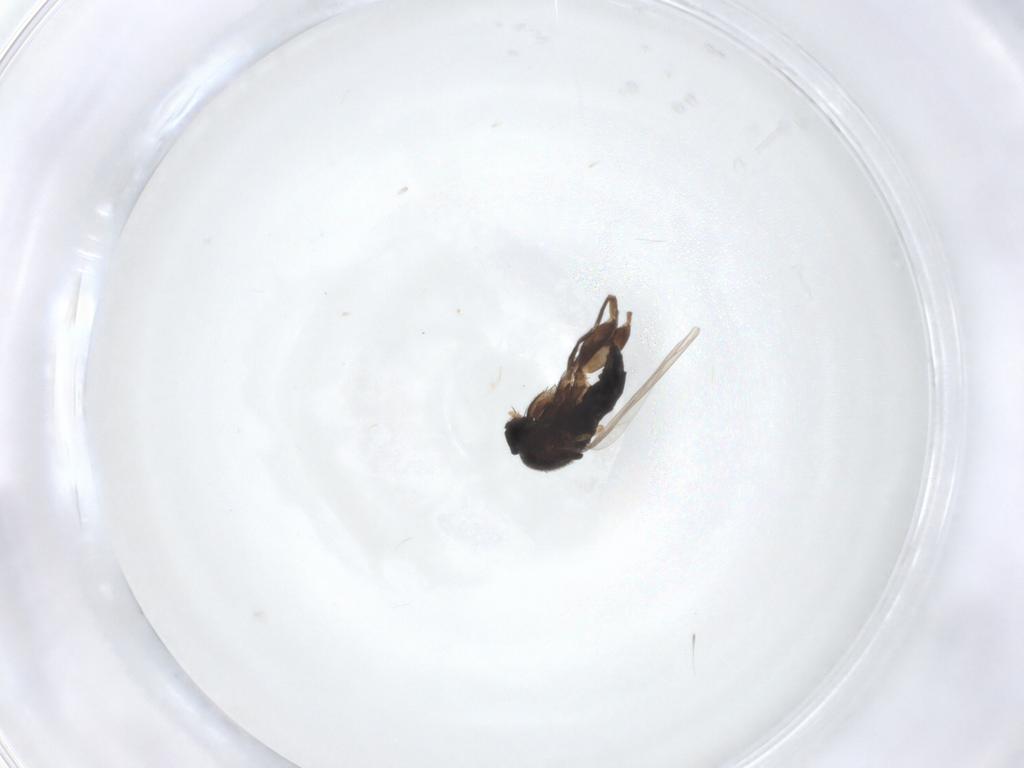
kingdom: Animalia
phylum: Arthropoda
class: Insecta
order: Diptera
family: Phoridae
